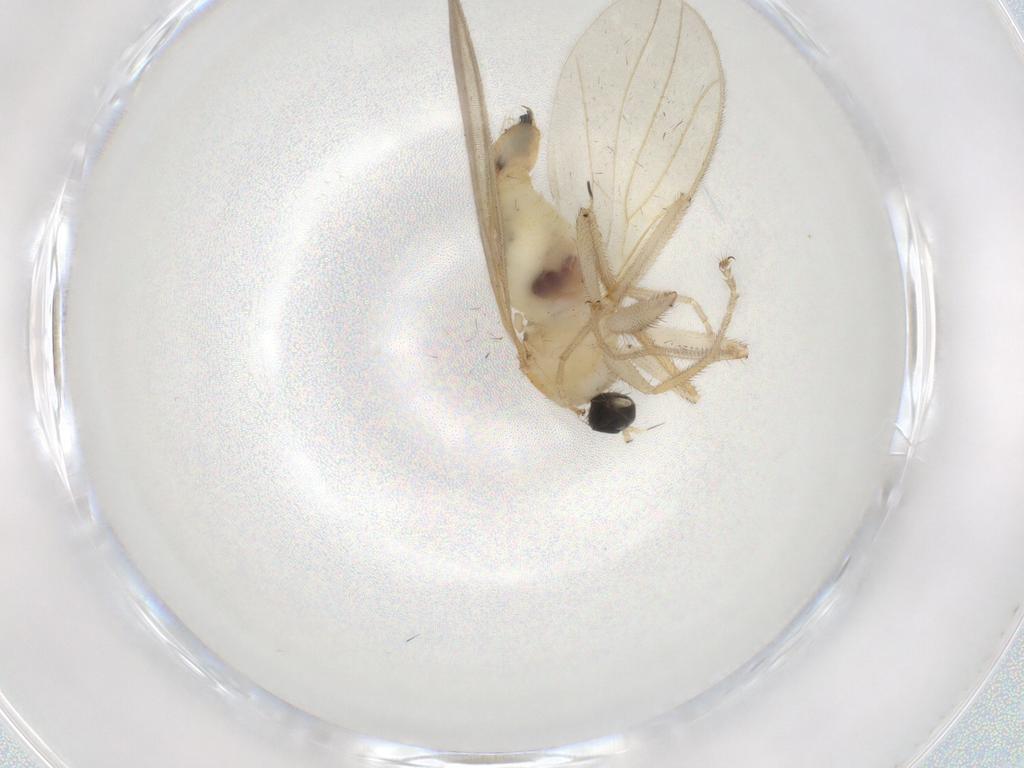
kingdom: Animalia
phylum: Arthropoda
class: Insecta
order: Diptera
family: Hybotidae
